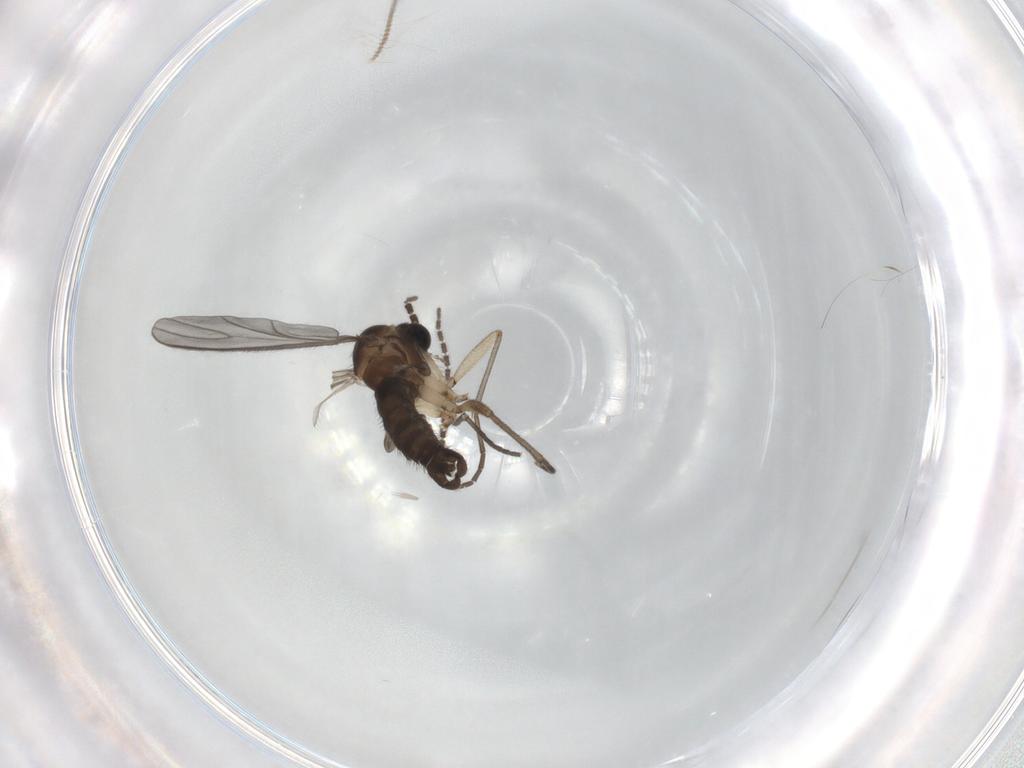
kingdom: Animalia
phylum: Arthropoda
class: Insecta
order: Diptera
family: Sciaridae
